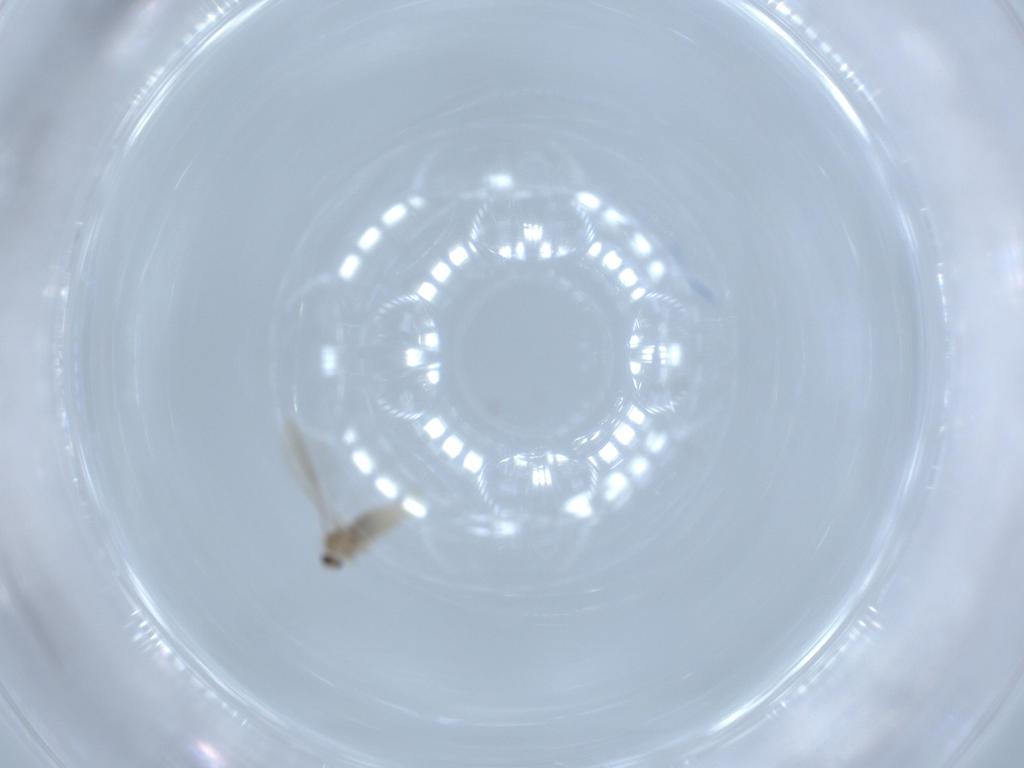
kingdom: Animalia
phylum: Arthropoda
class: Insecta
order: Diptera
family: Cecidomyiidae
